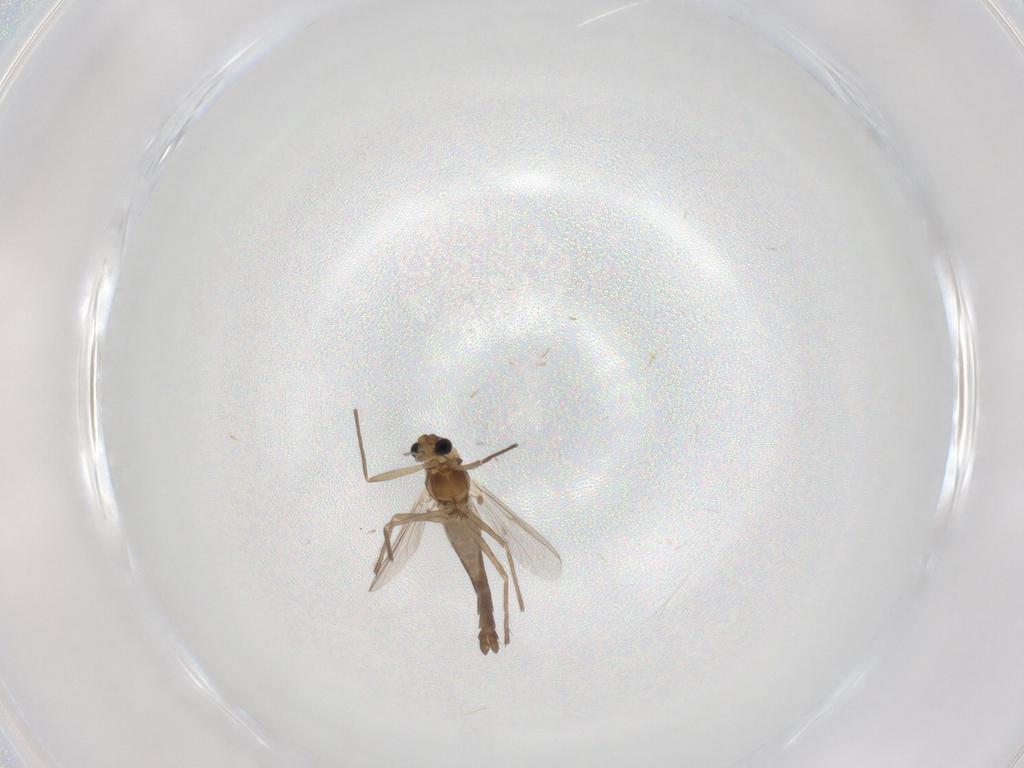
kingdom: Animalia
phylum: Arthropoda
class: Insecta
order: Diptera
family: Chironomidae
